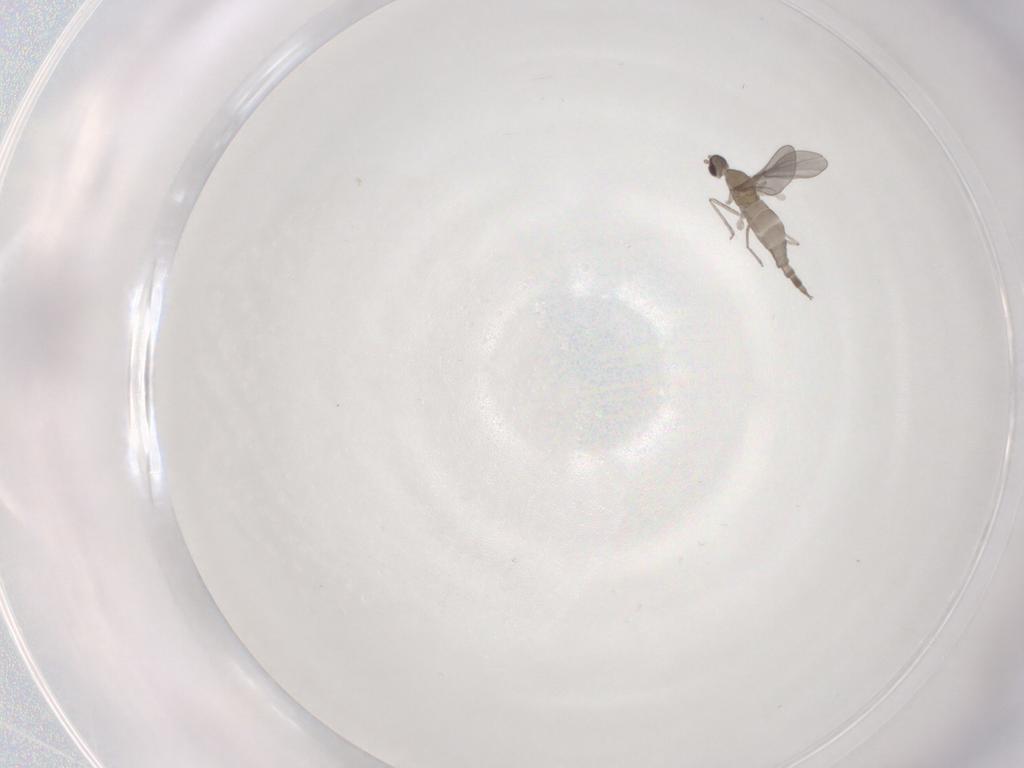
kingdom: Animalia
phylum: Arthropoda
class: Insecta
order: Diptera
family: Cecidomyiidae
